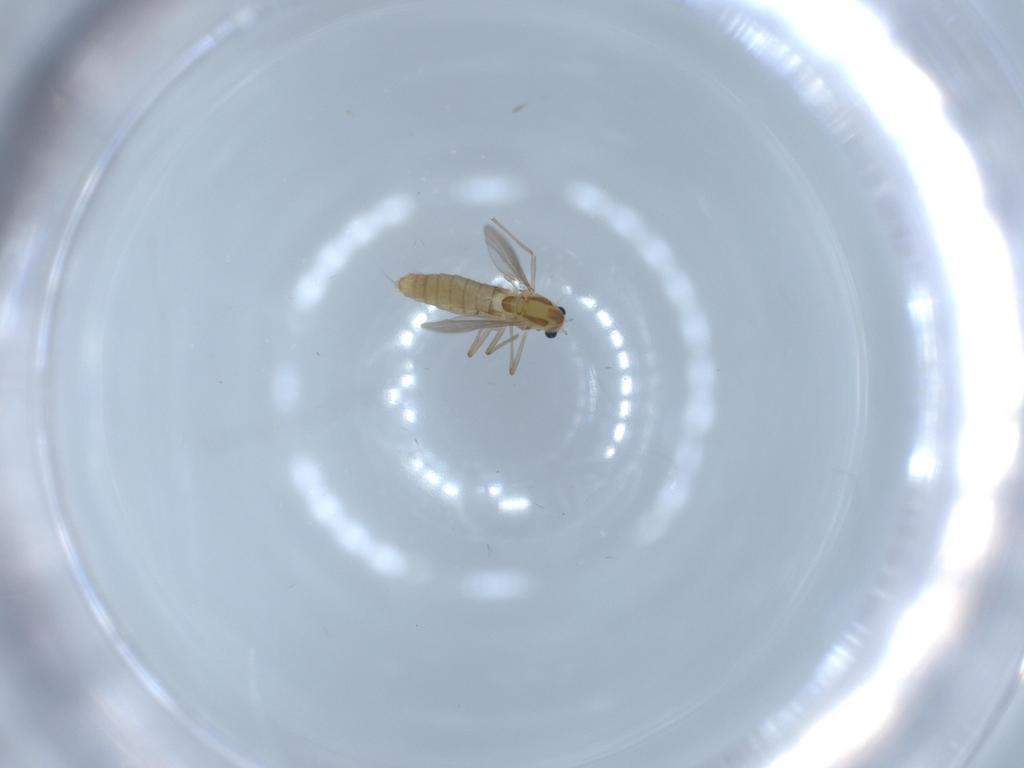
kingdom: Animalia
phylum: Arthropoda
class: Insecta
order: Diptera
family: Chironomidae
